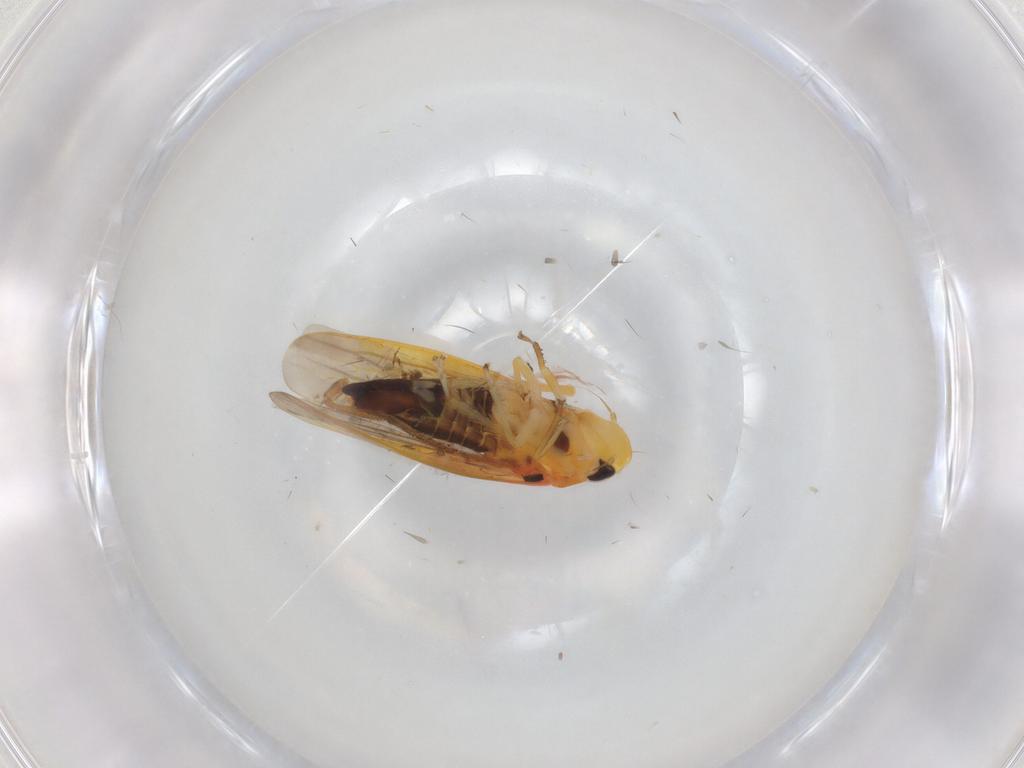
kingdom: Animalia
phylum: Arthropoda
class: Insecta
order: Hemiptera
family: Cicadellidae
